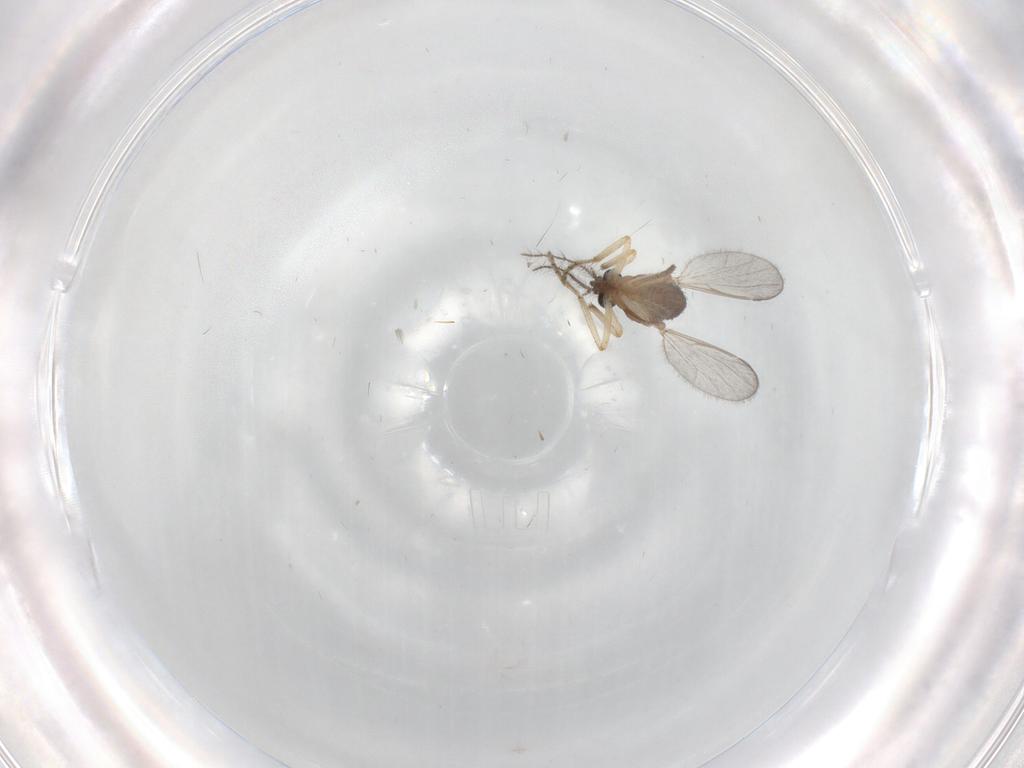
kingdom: Animalia
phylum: Arthropoda
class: Insecta
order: Diptera
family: Ceratopogonidae
